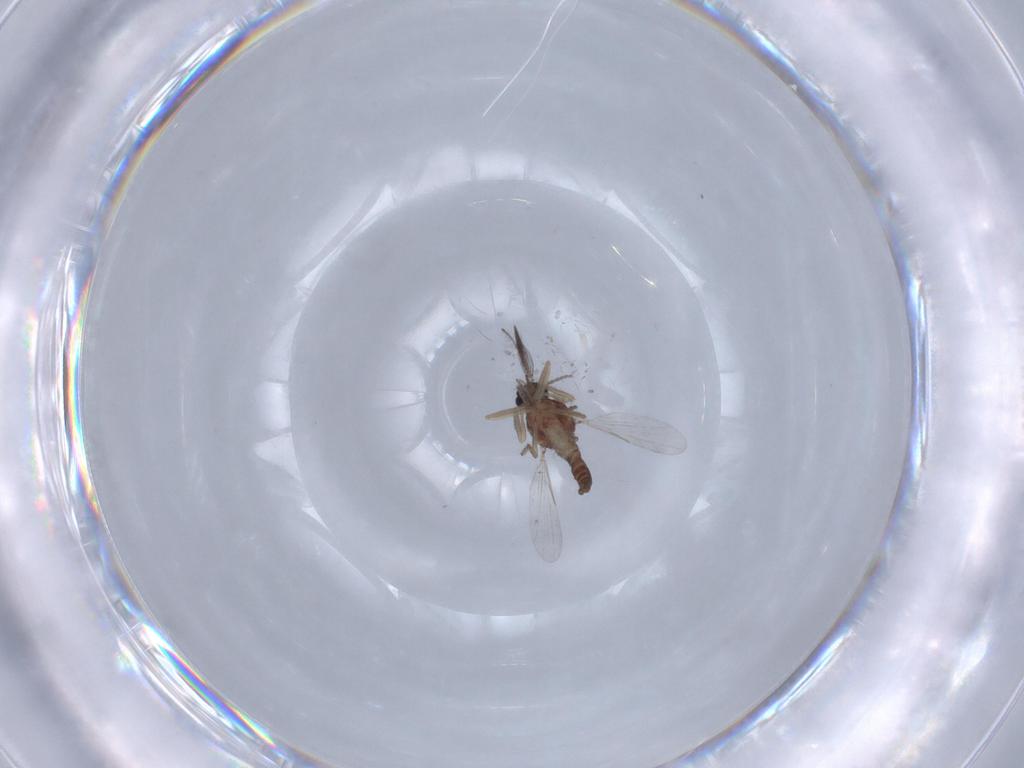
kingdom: Animalia
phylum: Arthropoda
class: Insecta
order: Diptera
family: Ceratopogonidae
